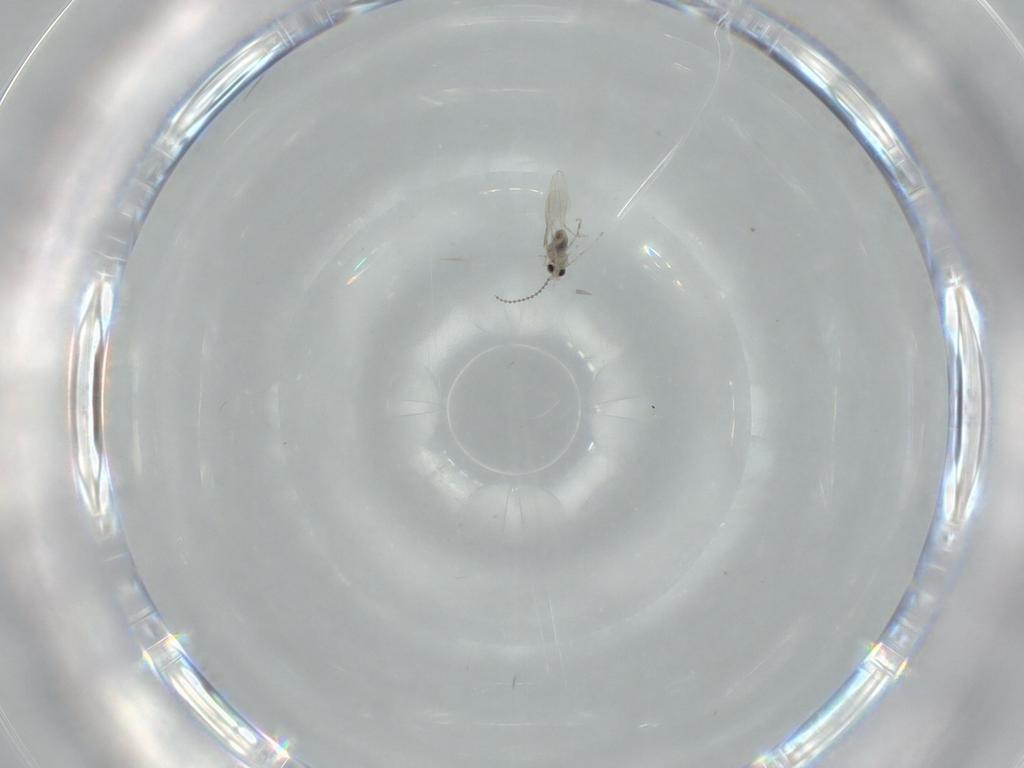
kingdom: Animalia
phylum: Arthropoda
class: Insecta
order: Diptera
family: Cecidomyiidae
